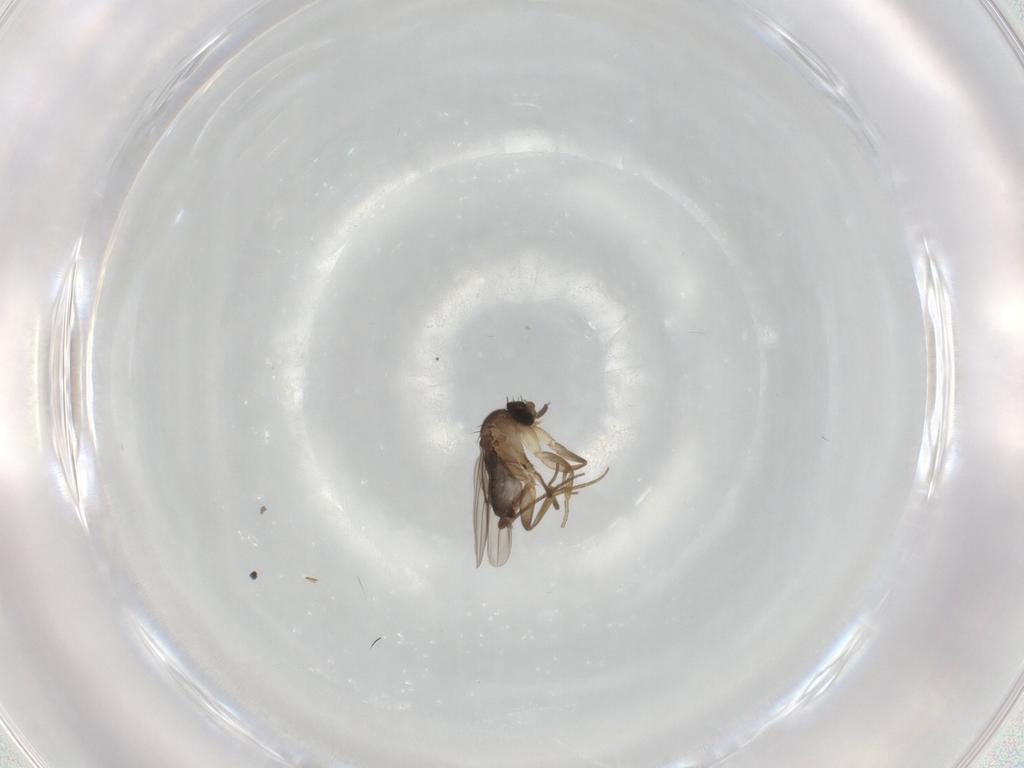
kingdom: Animalia
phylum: Arthropoda
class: Insecta
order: Diptera
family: Phoridae
